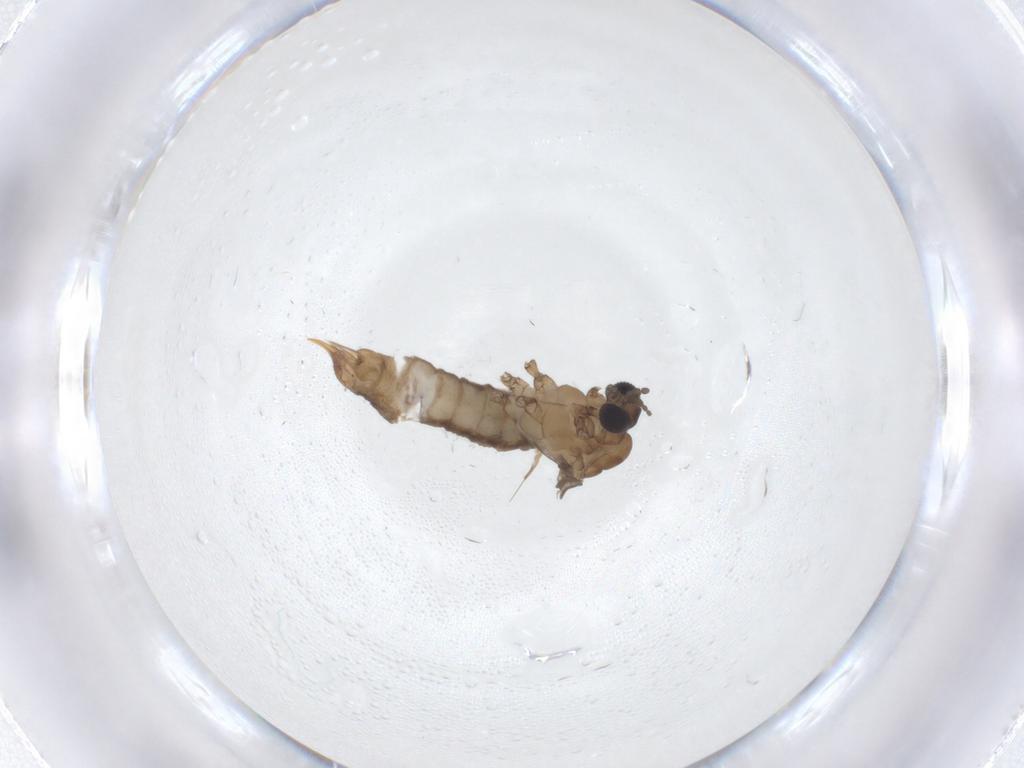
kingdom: Animalia
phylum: Arthropoda
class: Insecta
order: Diptera
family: Limoniidae
